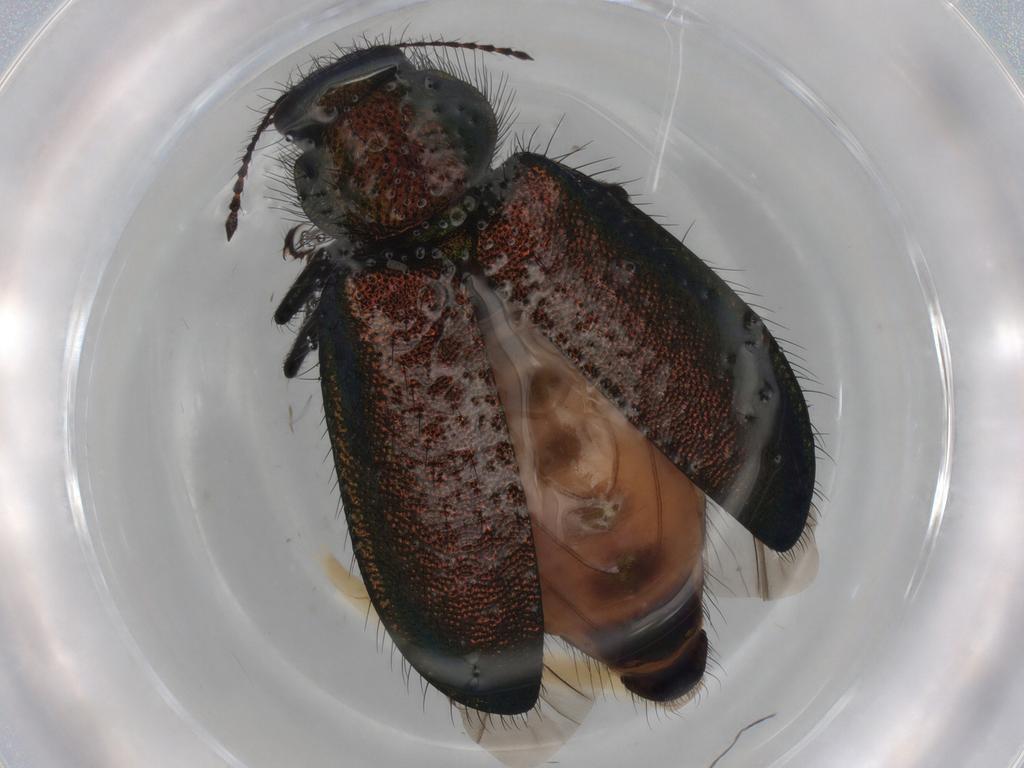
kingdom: Animalia
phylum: Arthropoda
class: Insecta
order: Coleoptera
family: Melyridae
